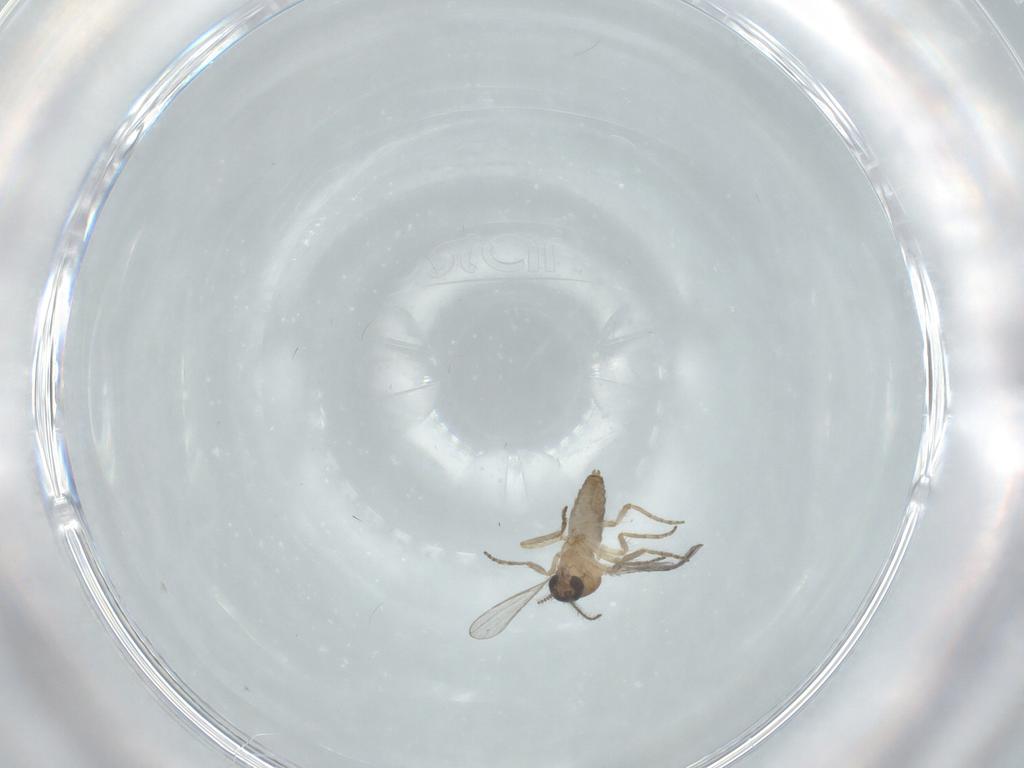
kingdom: Animalia
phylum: Arthropoda
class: Insecta
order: Diptera
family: Ceratopogonidae
